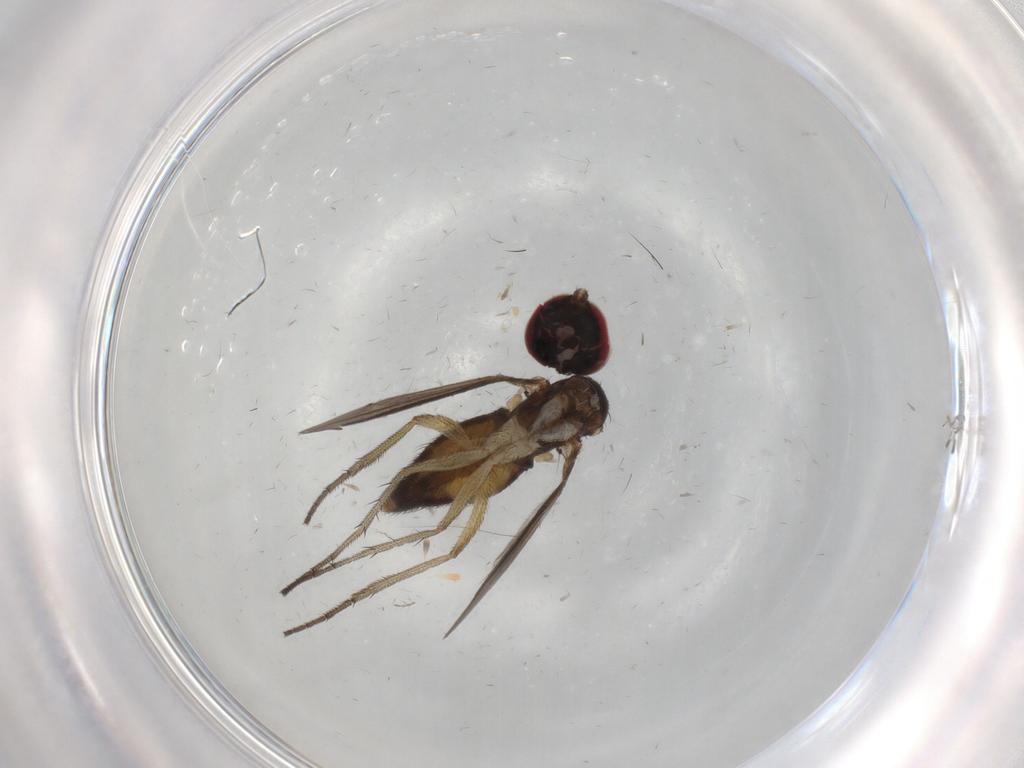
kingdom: Animalia
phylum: Arthropoda
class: Insecta
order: Diptera
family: Dolichopodidae
